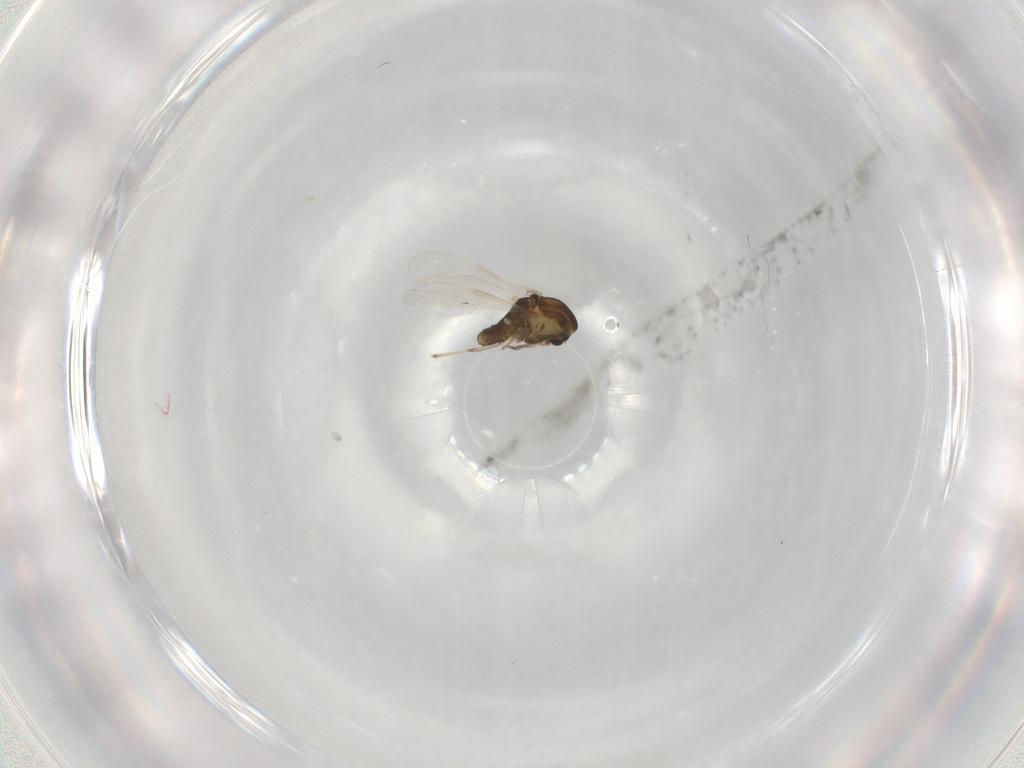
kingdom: Animalia
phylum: Arthropoda
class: Insecta
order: Diptera
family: Chironomidae
